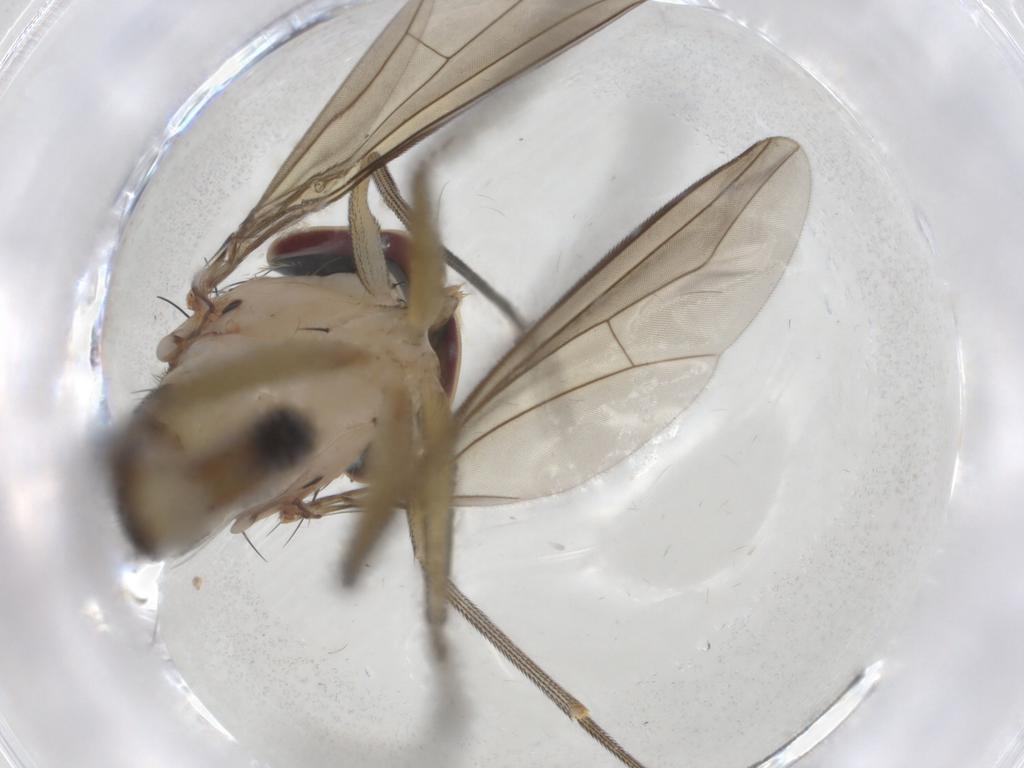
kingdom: Animalia
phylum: Arthropoda
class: Insecta
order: Diptera
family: Dolichopodidae
